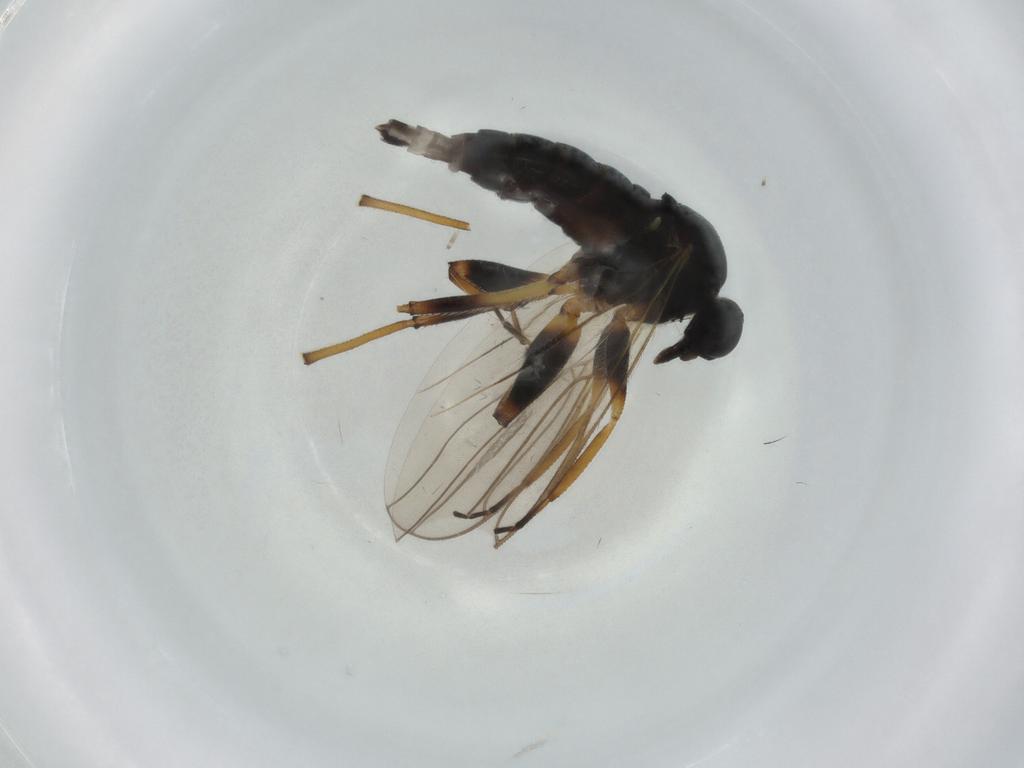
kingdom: Animalia
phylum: Arthropoda
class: Insecta
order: Diptera
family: Hybotidae
